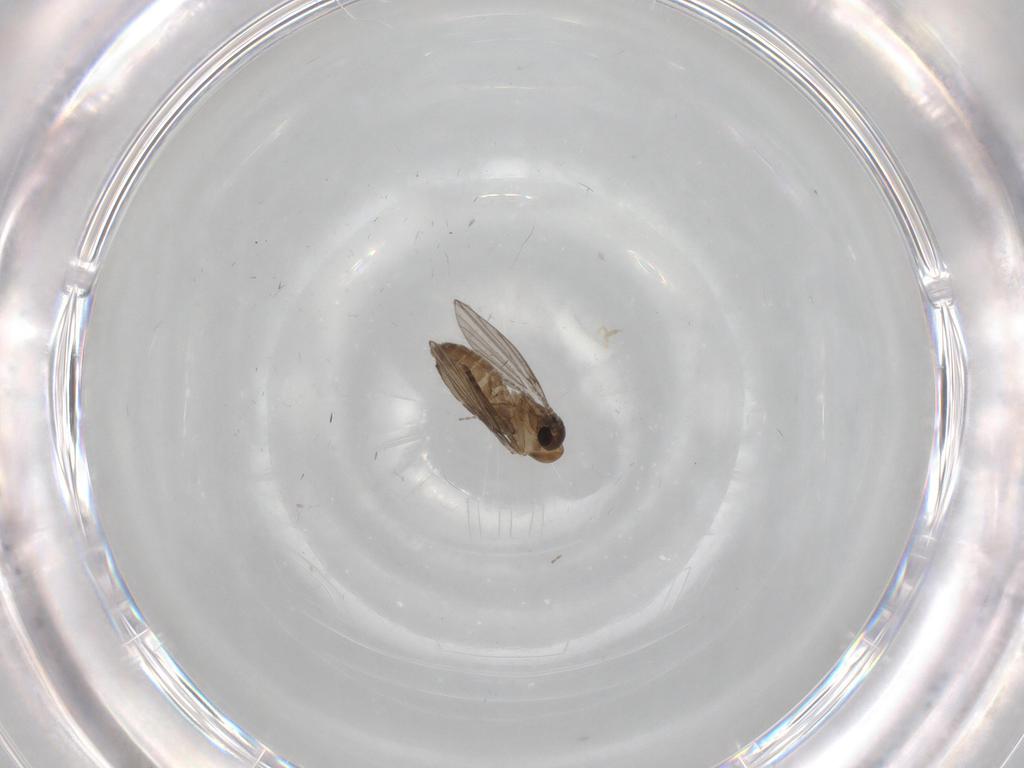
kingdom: Animalia
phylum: Arthropoda
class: Insecta
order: Diptera
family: Psychodidae
